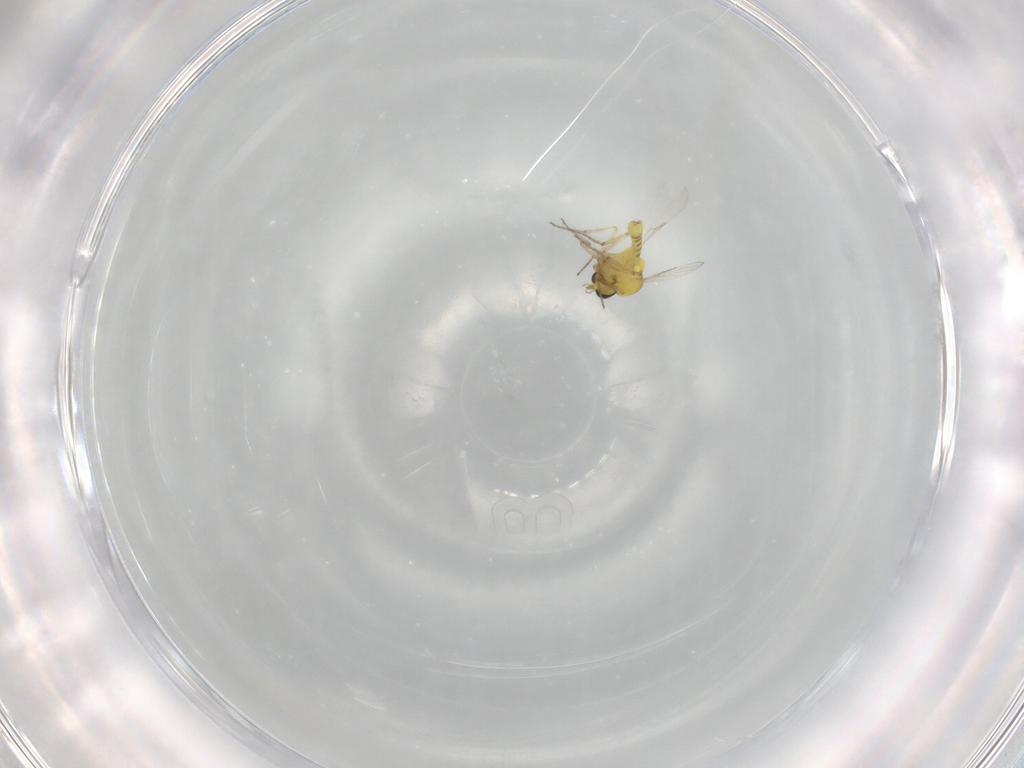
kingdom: Animalia
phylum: Arthropoda
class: Insecta
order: Diptera
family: Ceratopogonidae
